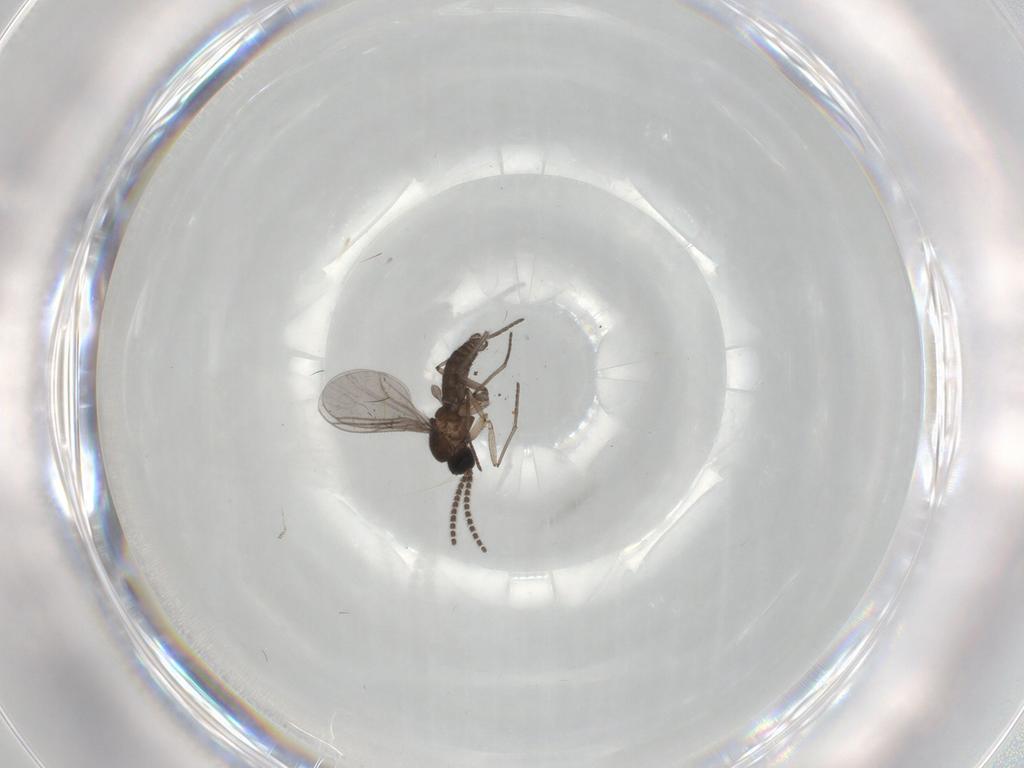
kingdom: Animalia
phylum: Arthropoda
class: Insecta
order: Diptera
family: Cecidomyiidae
